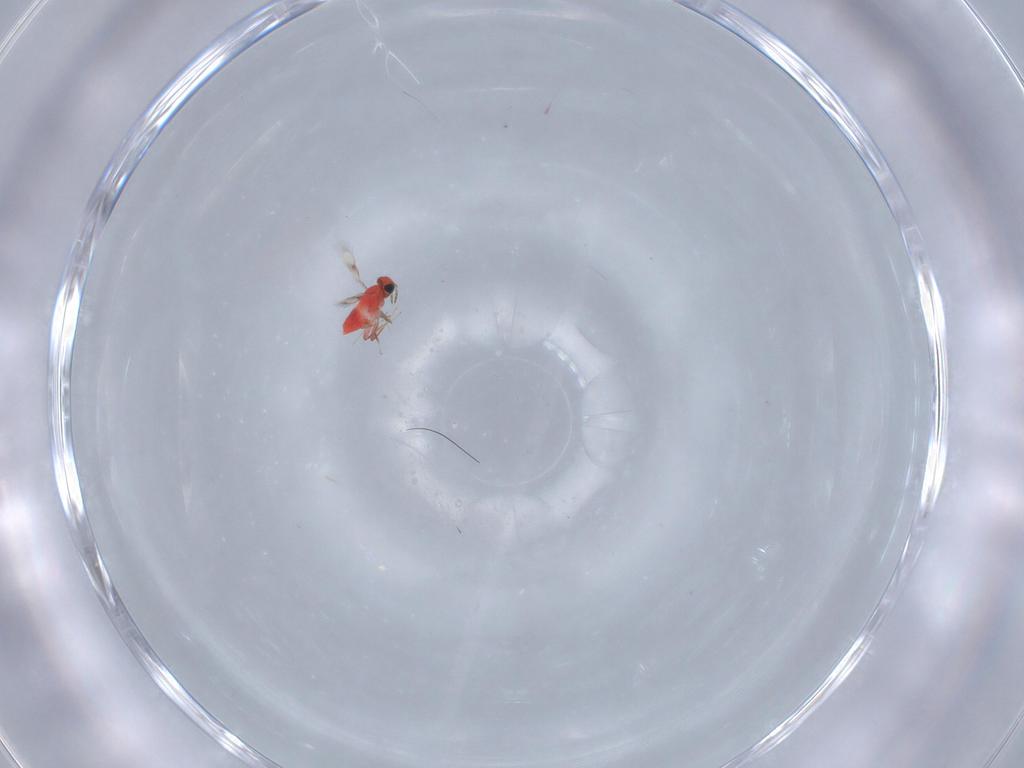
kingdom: Animalia
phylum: Arthropoda
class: Insecta
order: Hymenoptera
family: Trichogrammatidae
